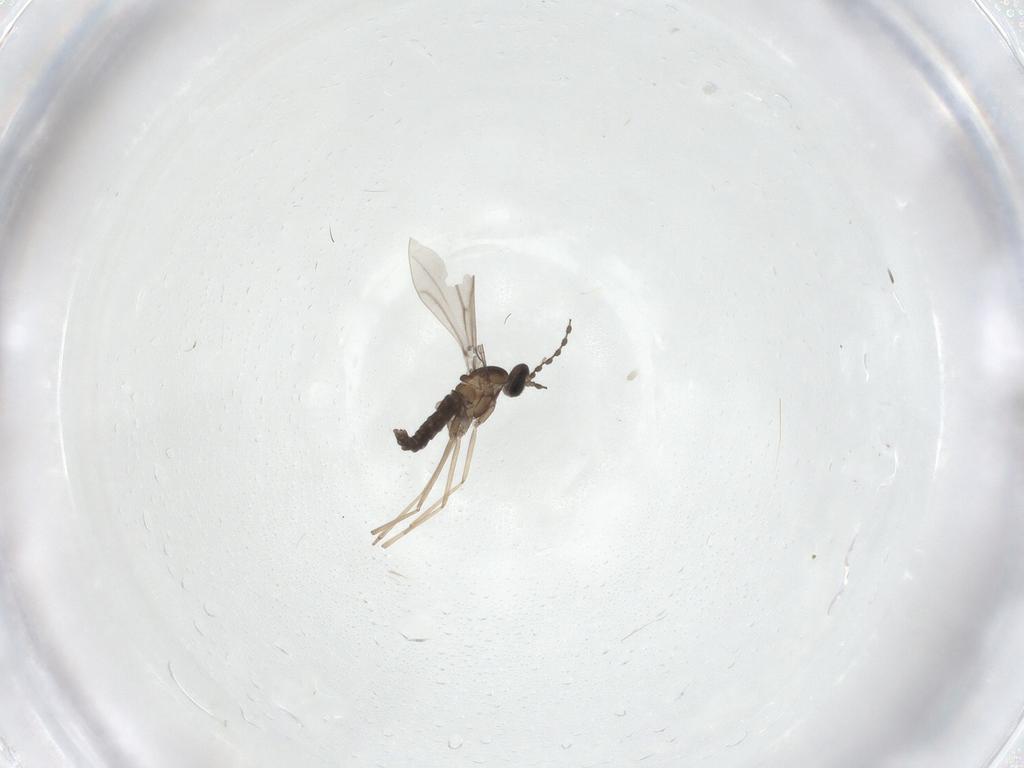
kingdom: Animalia
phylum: Arthropoda
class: Insecta
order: Diptera
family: Cecidomyiidae
